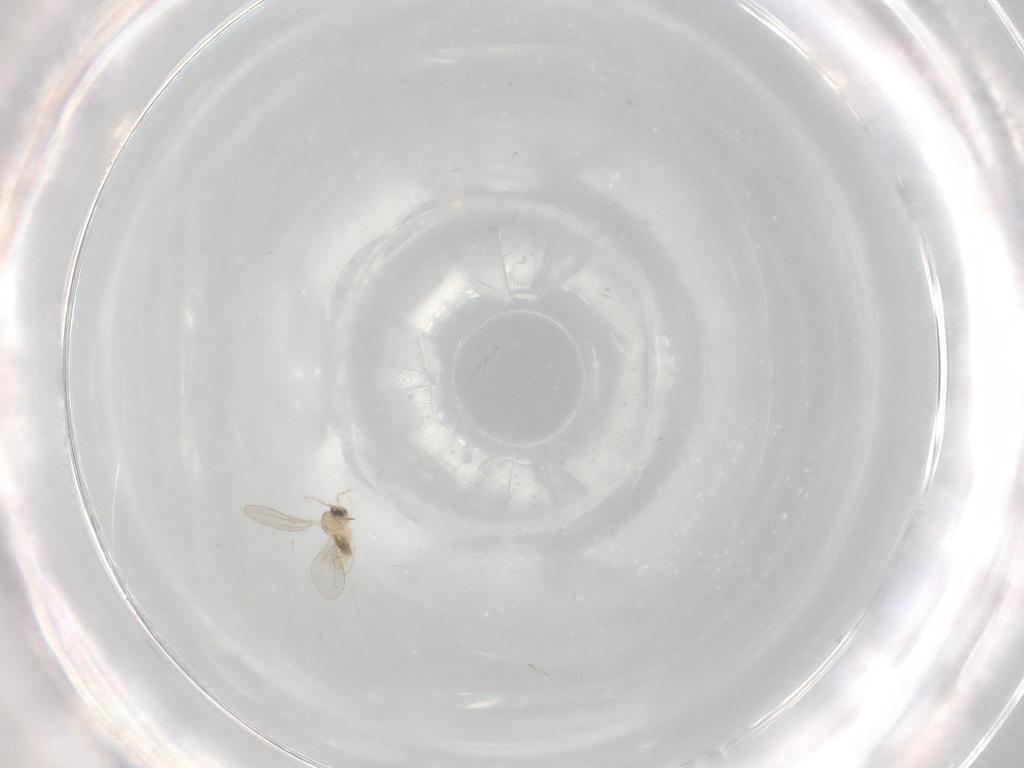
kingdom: Animalia
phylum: Arthropoda
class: Insecta
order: Diptera
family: Cecidomyiidae
